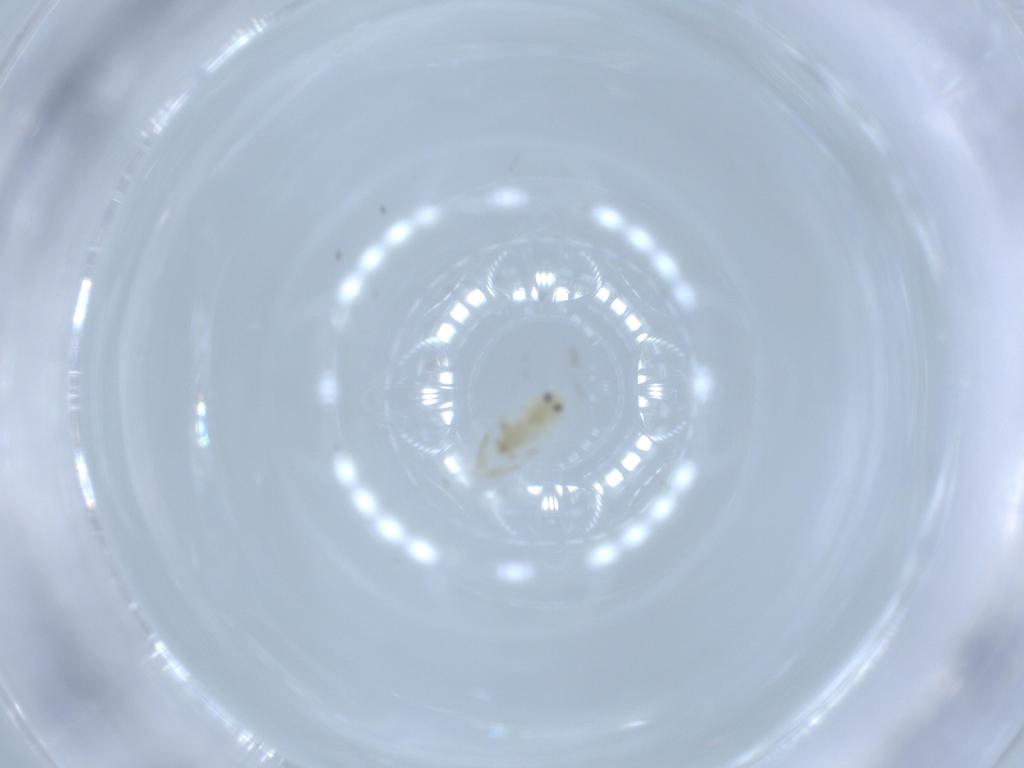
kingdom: Animalia
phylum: Arthropoda
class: Insecta
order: Hemiptera
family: Aleyrodidae
